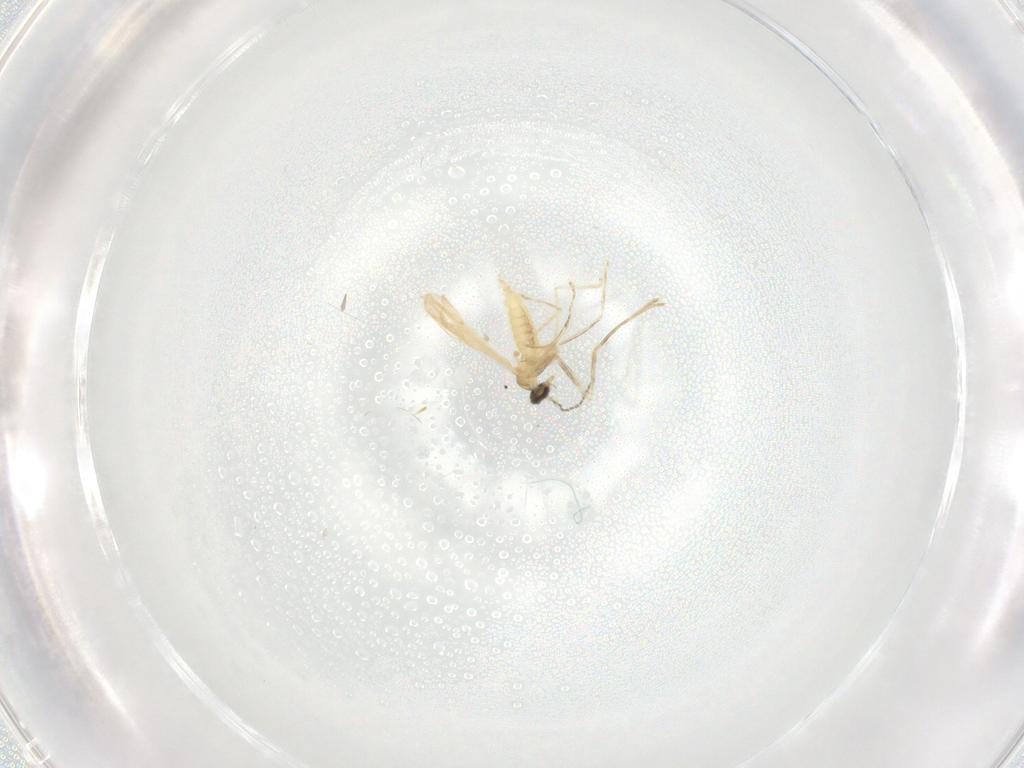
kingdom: Animalia
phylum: Arthropoda
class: Insecta
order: Diptera
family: Cecidomyiidae
